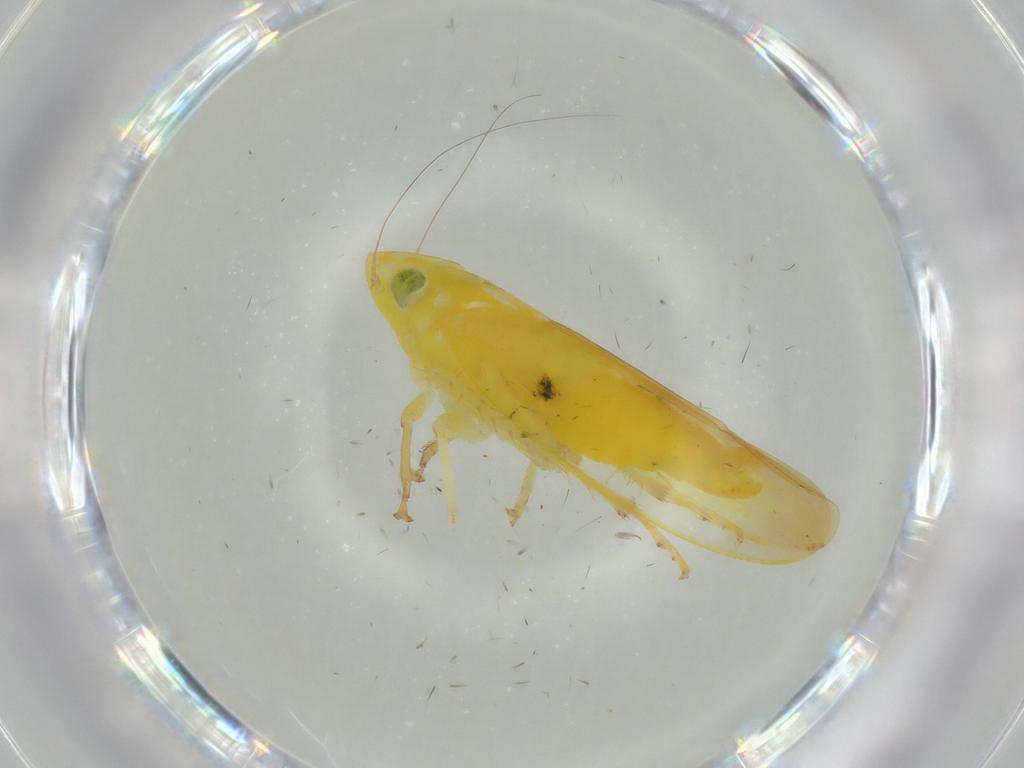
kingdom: Animalia
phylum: Arthropoda
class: Insecta
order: Hemiptera
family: Cicadellidae
